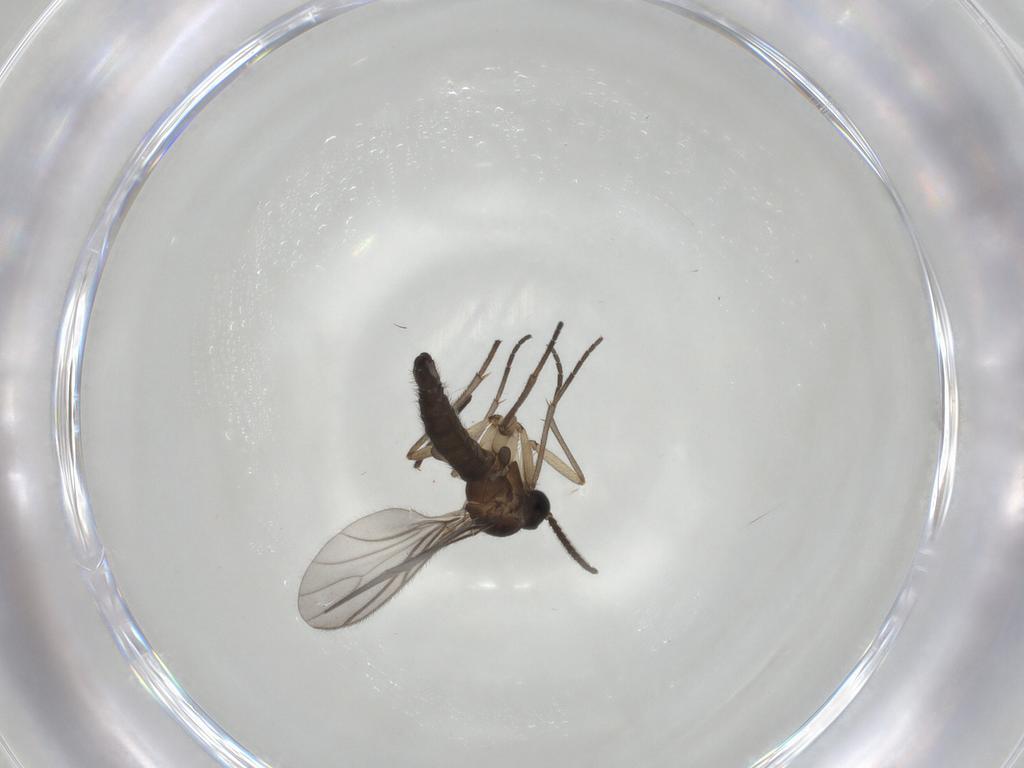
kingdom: Animalia
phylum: Arthropoda
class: Insecta
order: Diptera
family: Sciaridae
